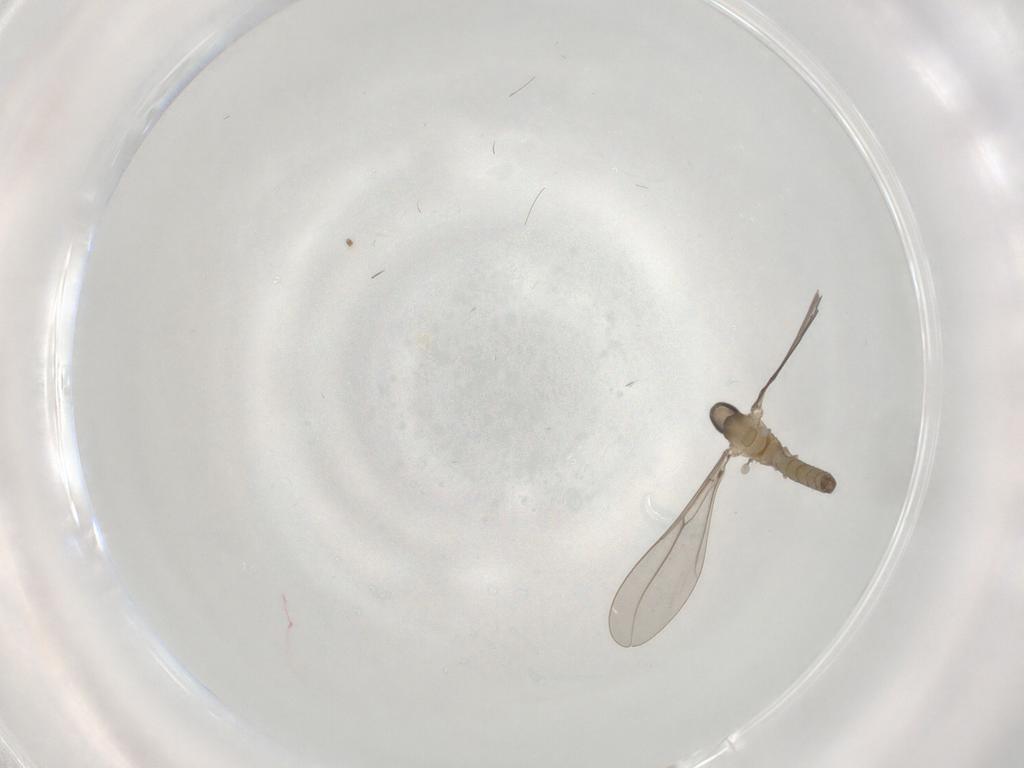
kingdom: Animalia
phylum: Arthropoda
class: Insecta
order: Diptera
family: Cecidomyiidae
